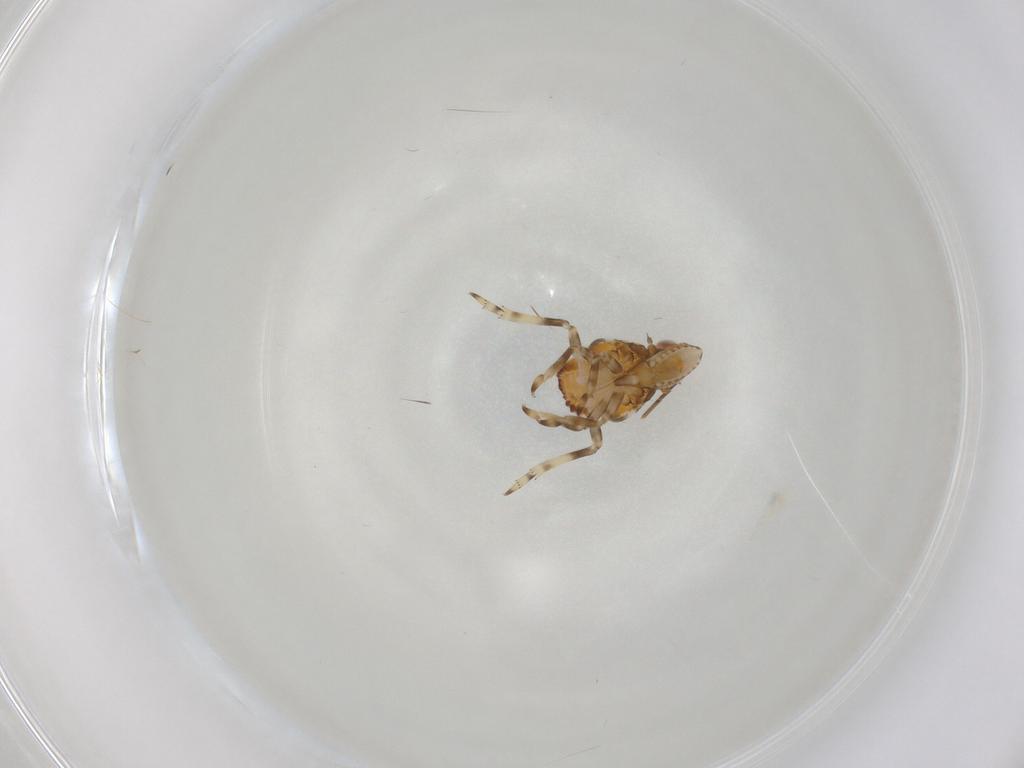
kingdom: Animalia
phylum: Arthropoda
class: Insecta
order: Hemiptera
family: Tropiduchidae
